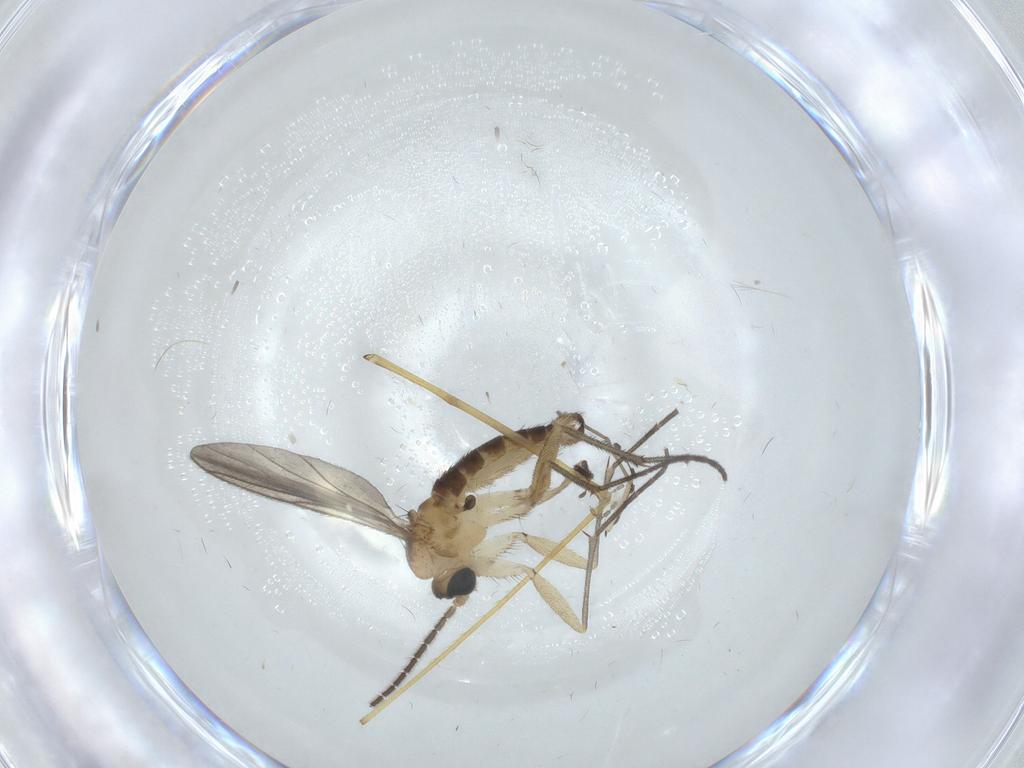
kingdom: Animalia
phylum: Arthropoda
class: Insecta
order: Diptera
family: Sciaridae
